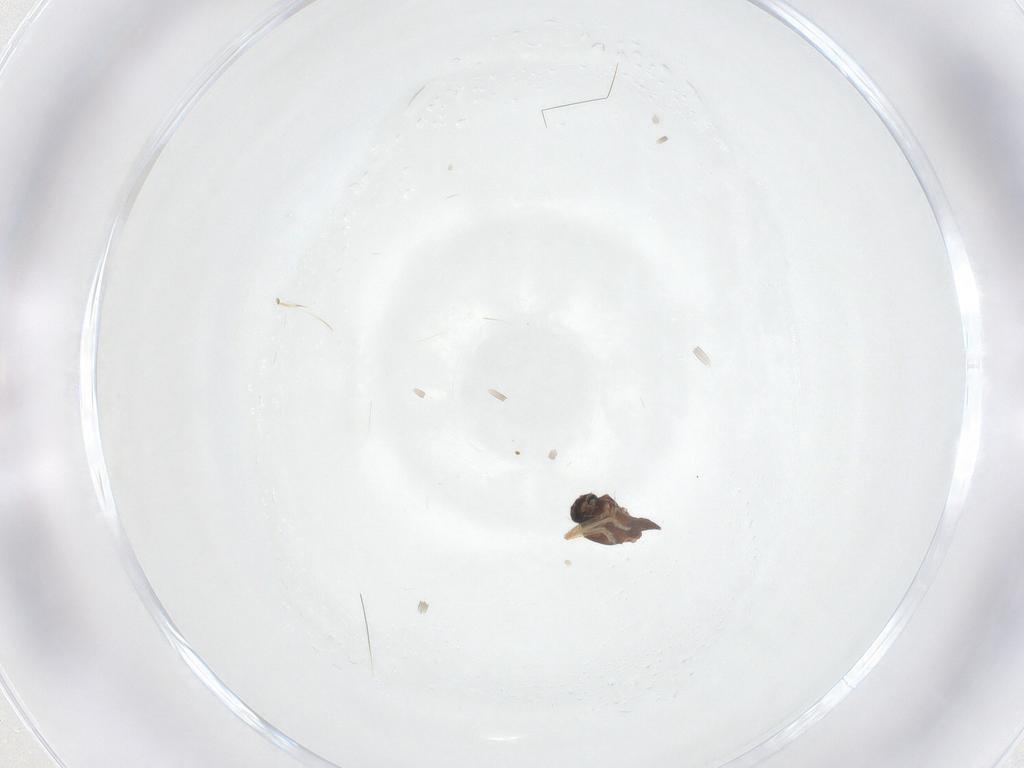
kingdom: Animalia
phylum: Arthropoda
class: Insecta
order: Diptera
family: Ceratopogonidae
